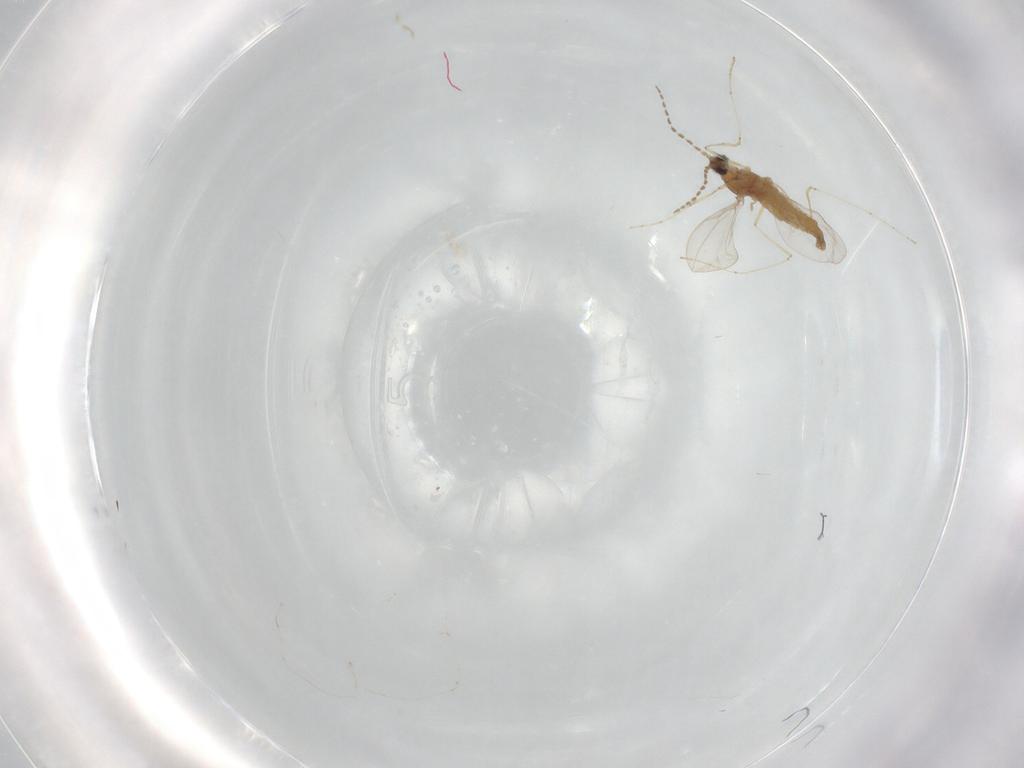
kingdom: Animalia
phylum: Arthropoda
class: Insecta
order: Diptera
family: Cecidomyiidae
